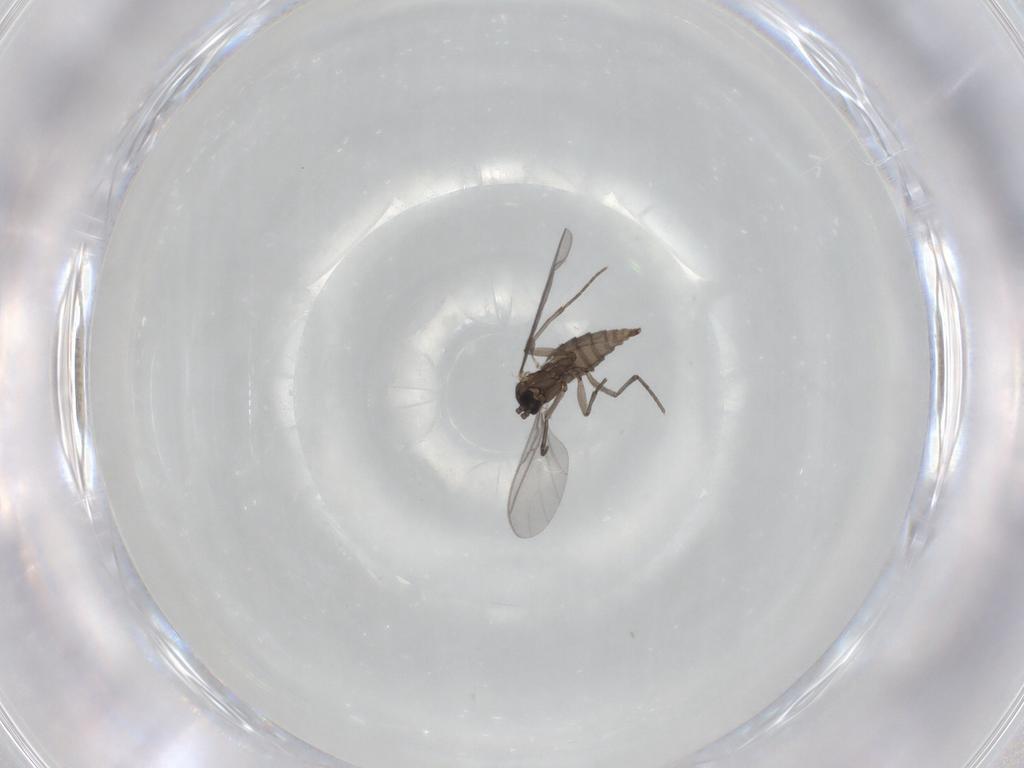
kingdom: Animalia
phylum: Arthropoda
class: Insecta
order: Diptera
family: Sciaridae
